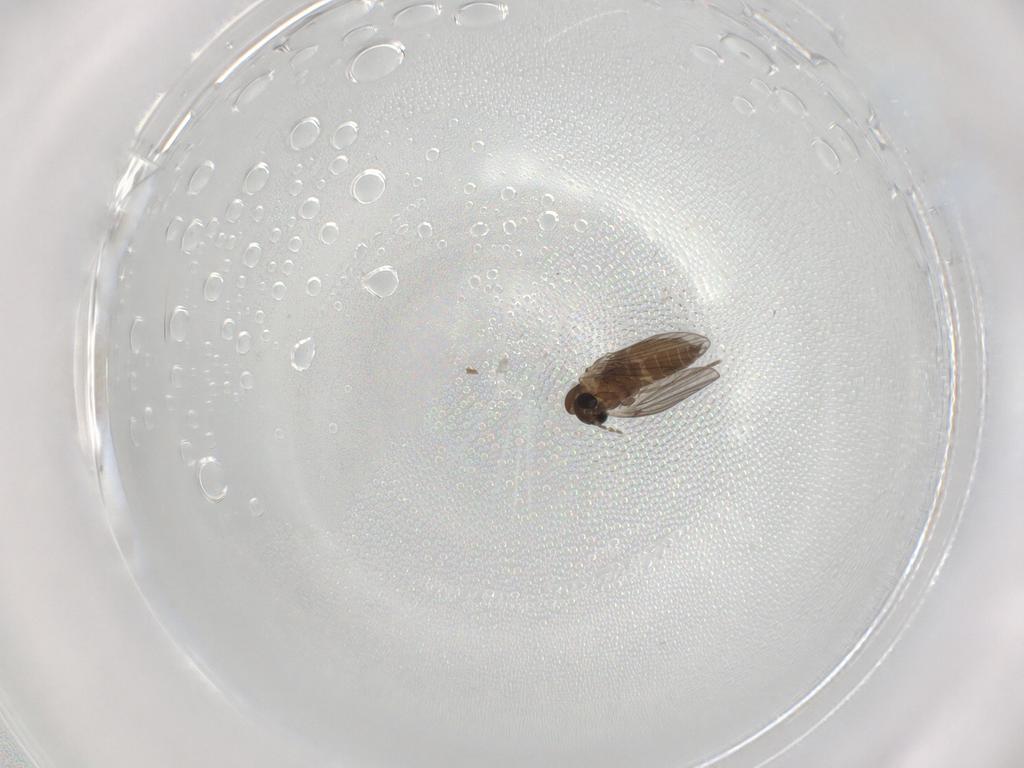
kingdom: Animalia
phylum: Arthropoda
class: Insecta
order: Diptera
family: Cecidomyiidae
